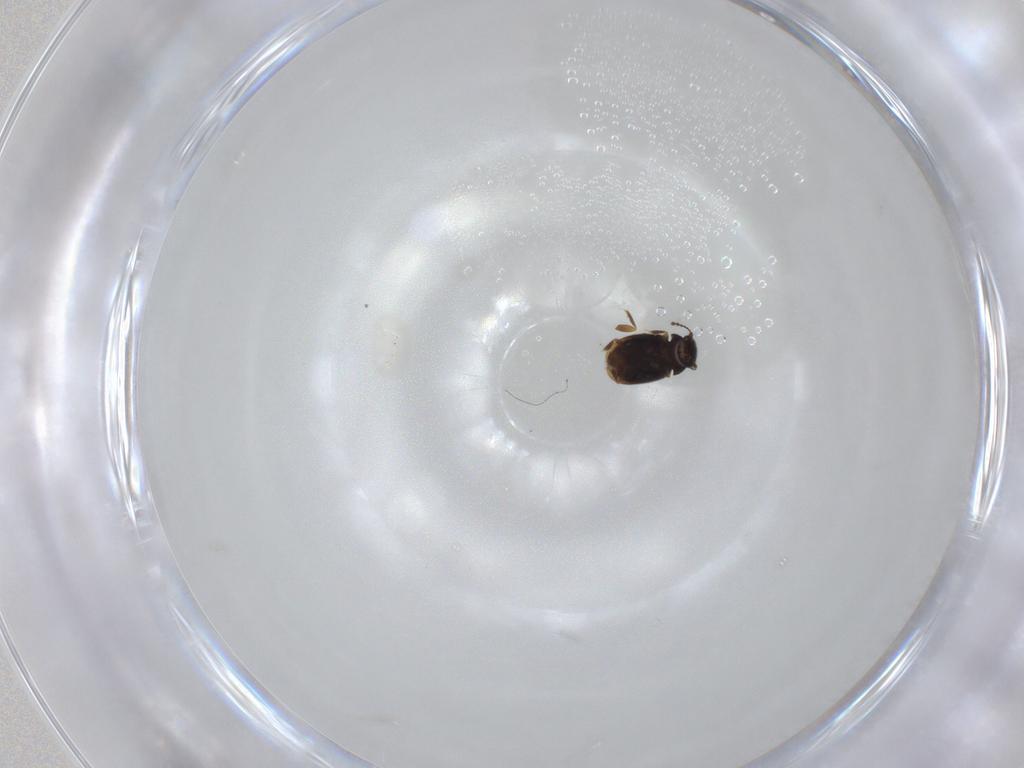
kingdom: Animalia
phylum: Arthropoda
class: Insecta
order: Coleoptera
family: Ptiliidae
